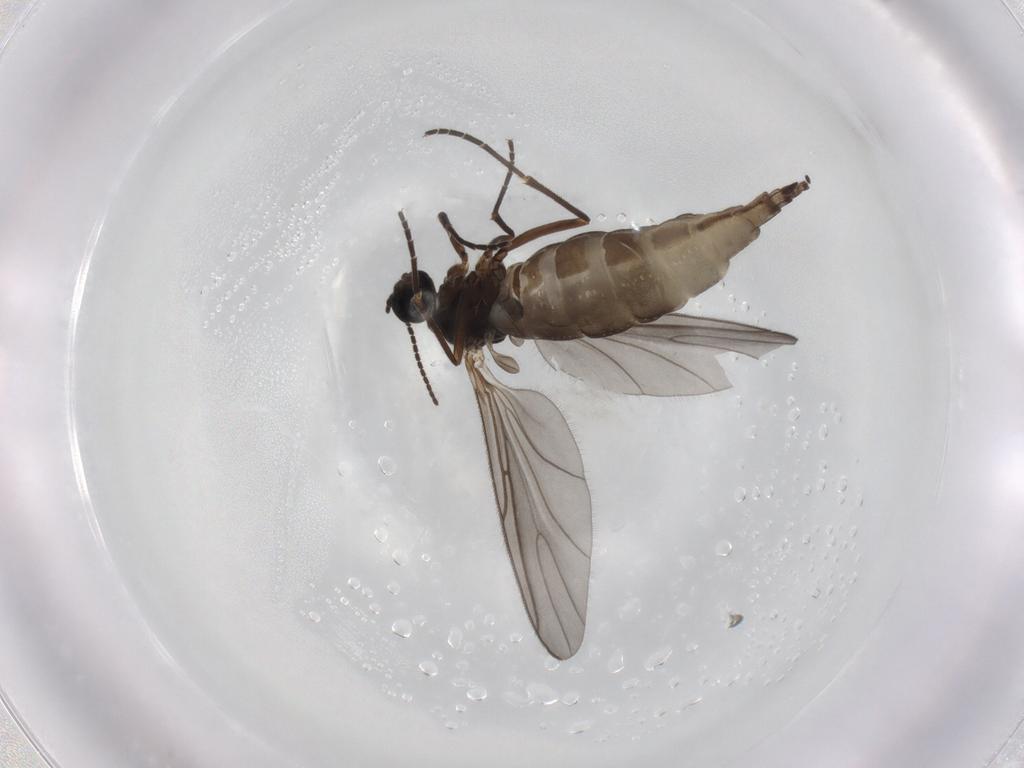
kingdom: Animalia
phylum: Arthropoda
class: Insecta
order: Diptera
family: Sciaridae
